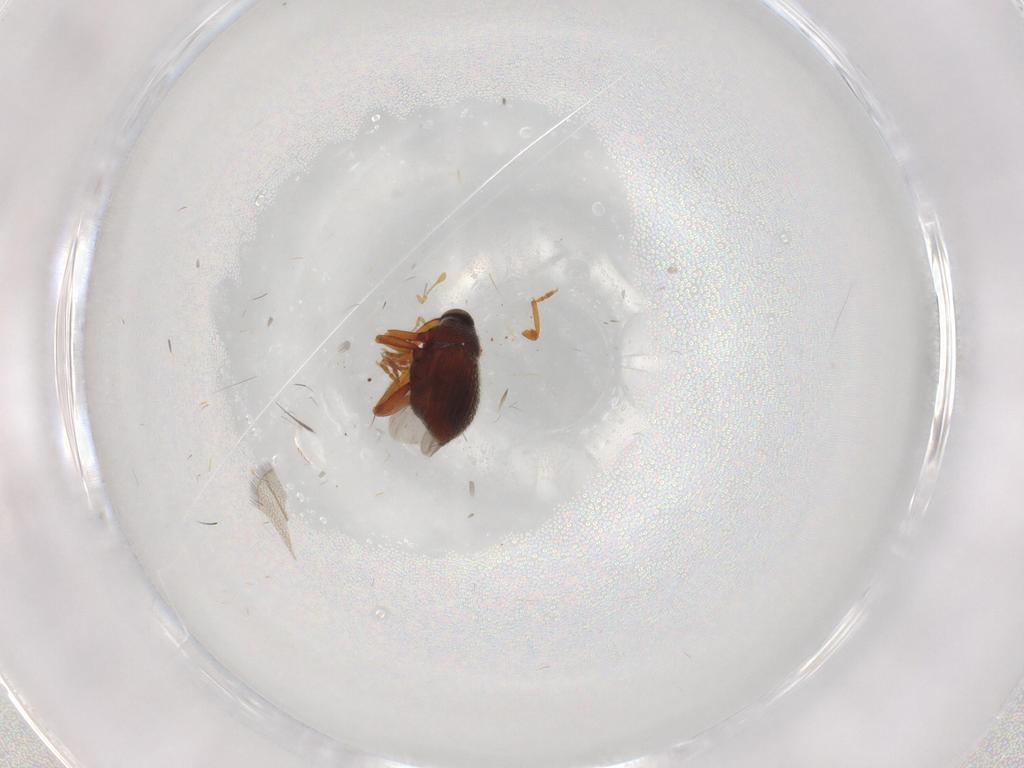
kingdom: Animalia
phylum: Arthropoda
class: Insecta
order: Coleoptera
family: Curculionidae
